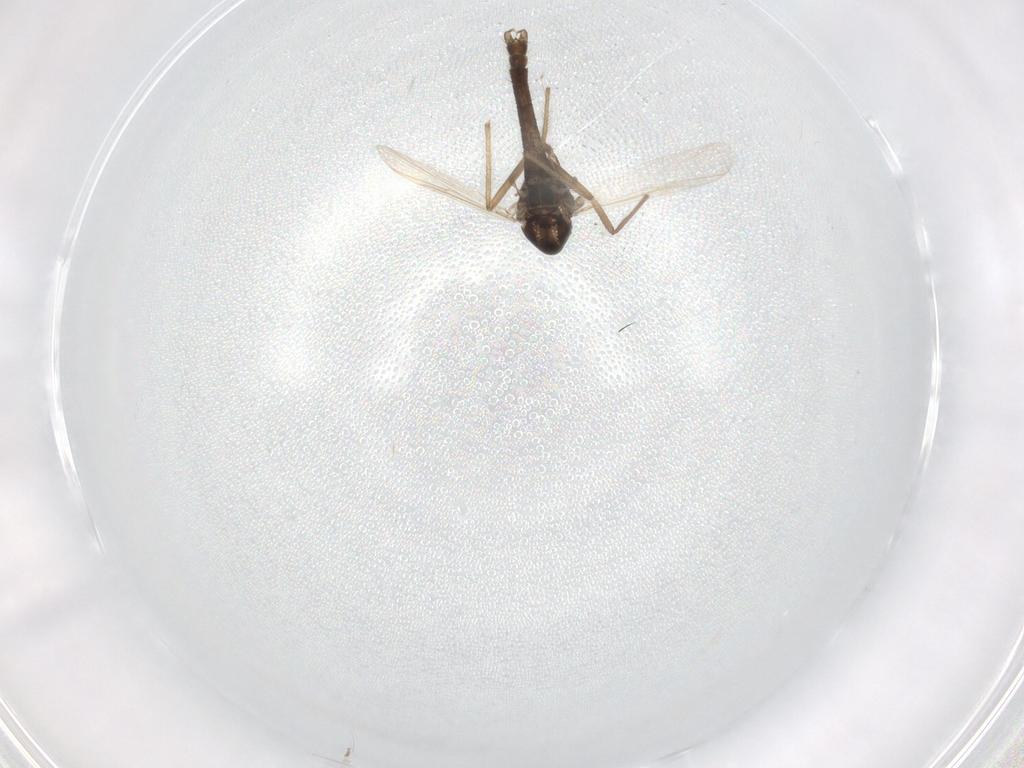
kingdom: Animalia
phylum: Arthropoda
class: Insecta
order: Diptera
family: Chironomidae
